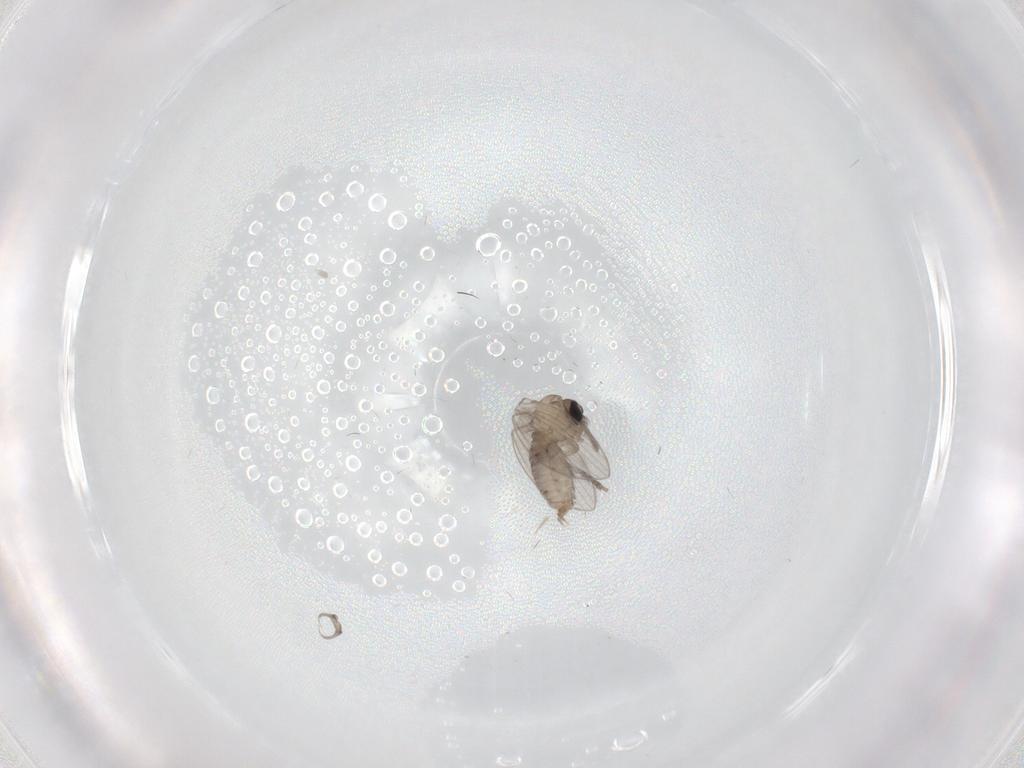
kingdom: Animalia
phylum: Arthropoda
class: Insecta
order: Diptera
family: Psychodidae
